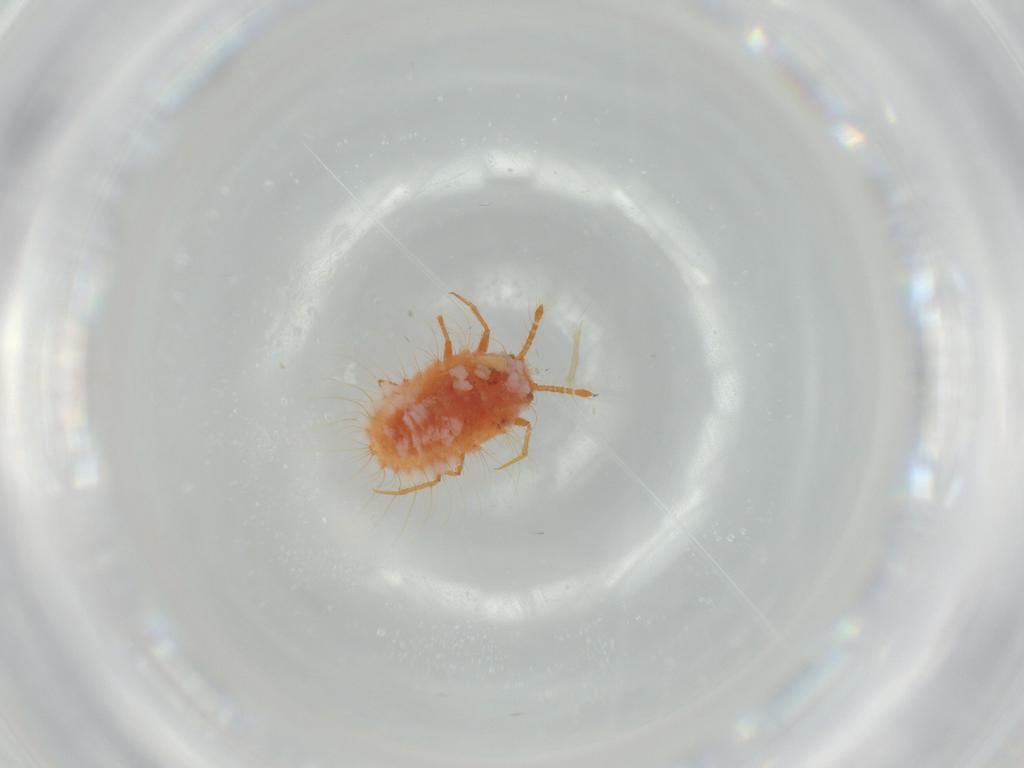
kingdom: Animalia
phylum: Arthropoda
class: Insecta
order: Hemiptera
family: Coccoidea_incertae_sedis
